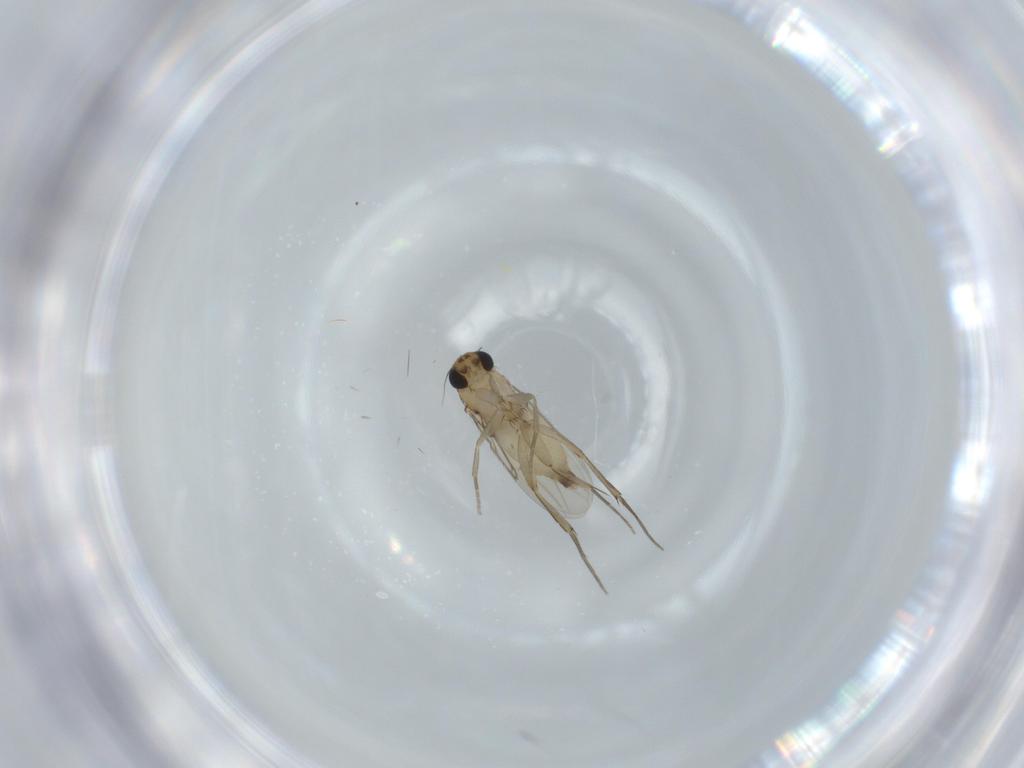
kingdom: Animalia
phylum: Arthropoda
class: Insecta
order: Diptera
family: Phoridae
